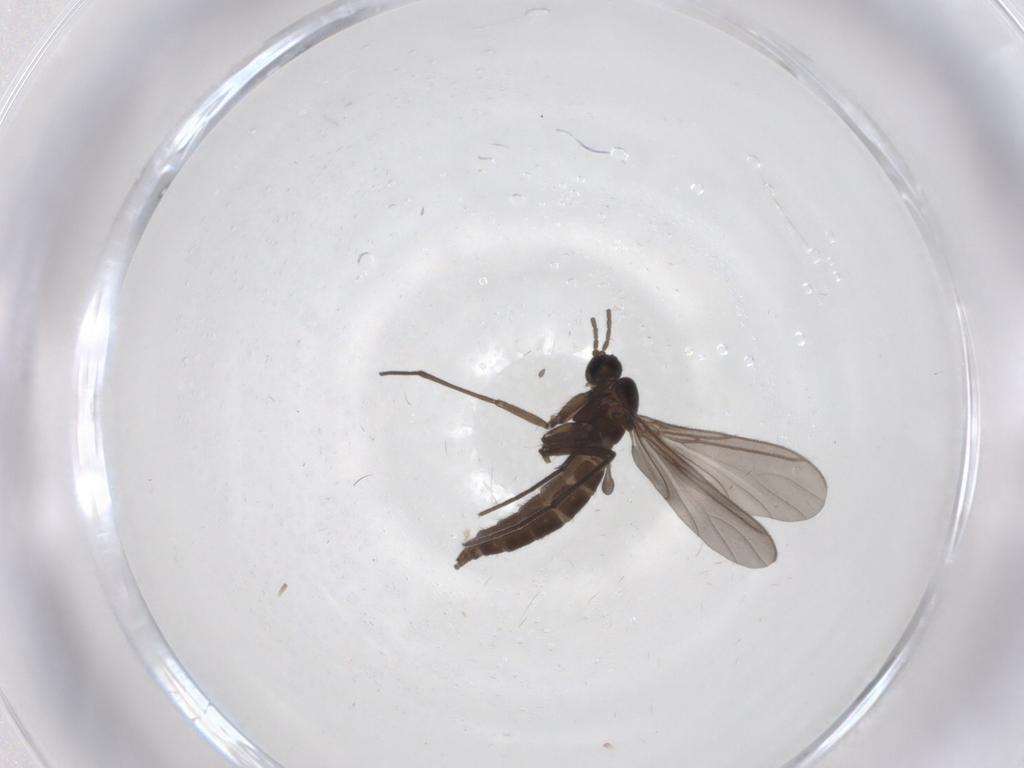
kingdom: Animalia
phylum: Arthropoda
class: Insecta
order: Diptera
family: Sciaridae
